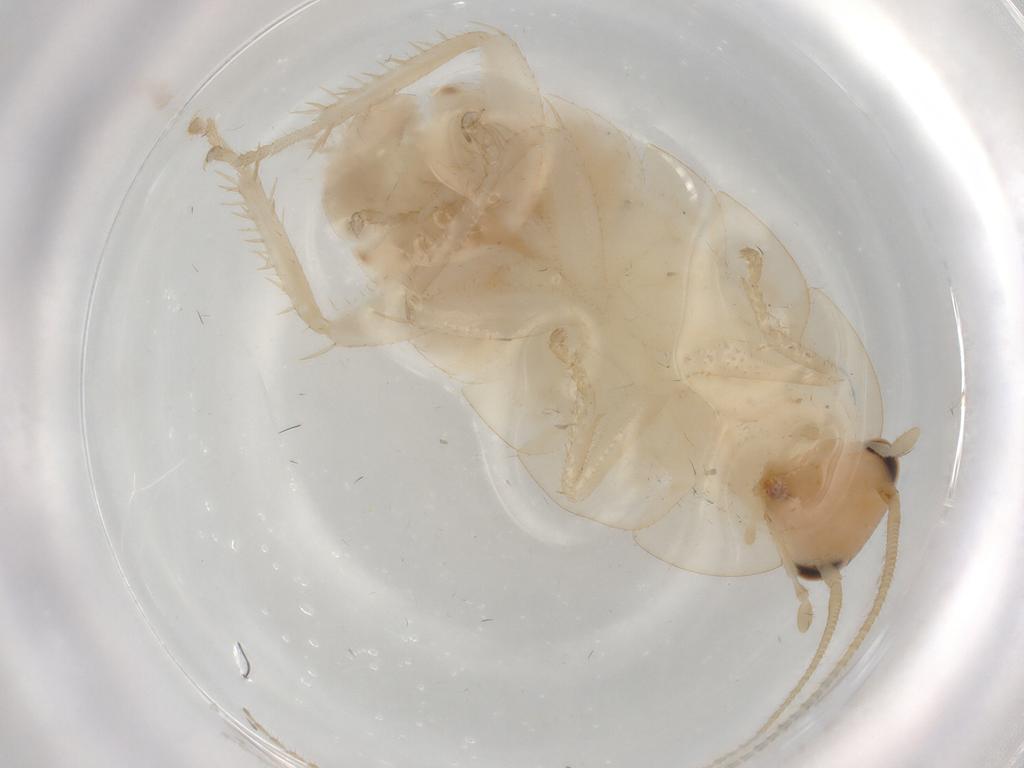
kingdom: Animalia
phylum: Arthropoda
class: Insecta
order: Blattodea
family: Ectobiidae
